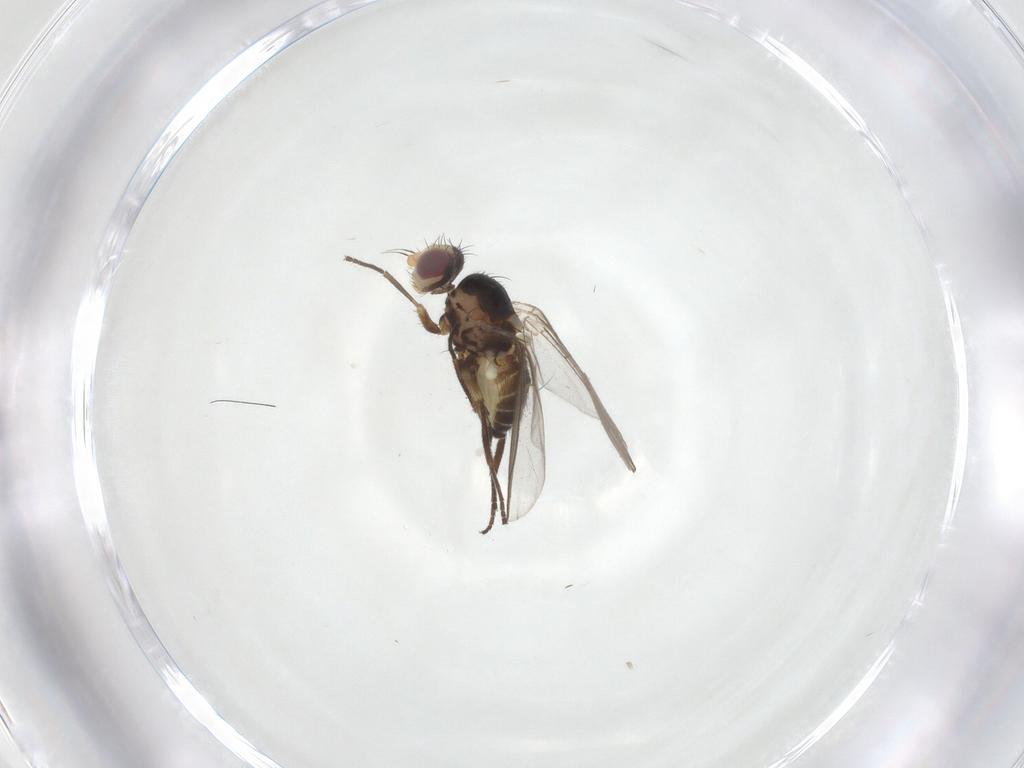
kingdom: Animalia
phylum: Arthropoda
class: Insecta
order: Diptera
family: Agromyzidae
